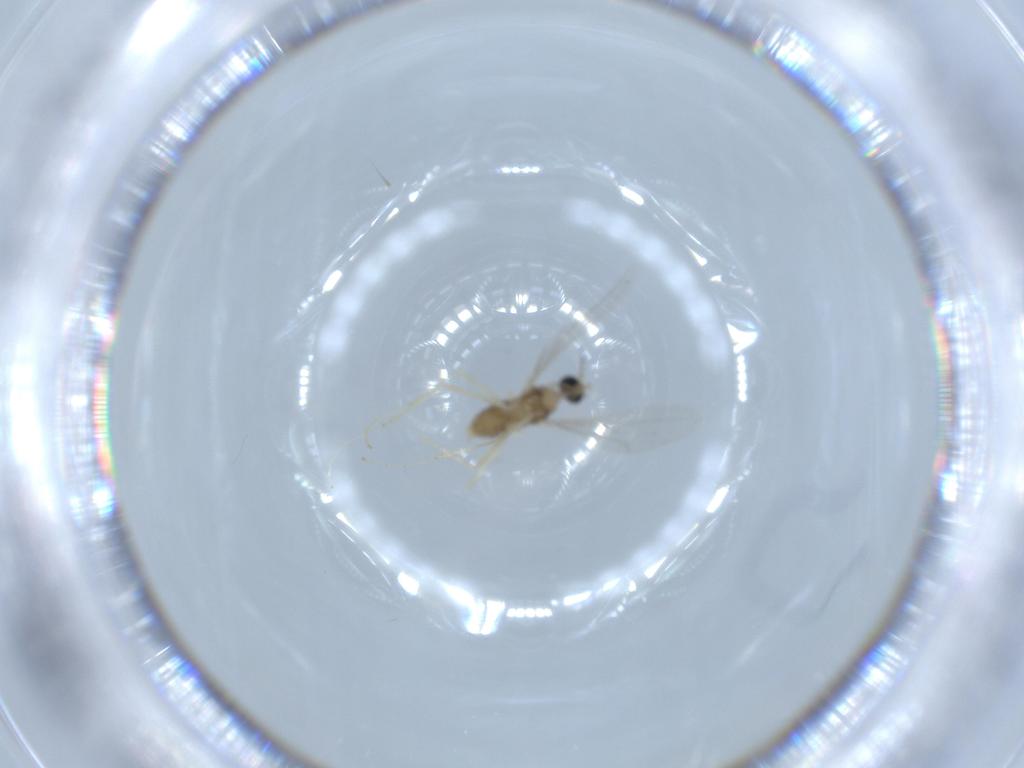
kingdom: Animalia
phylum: Arthropoda
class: Insecta
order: Diptera
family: Cecidomyiidae
